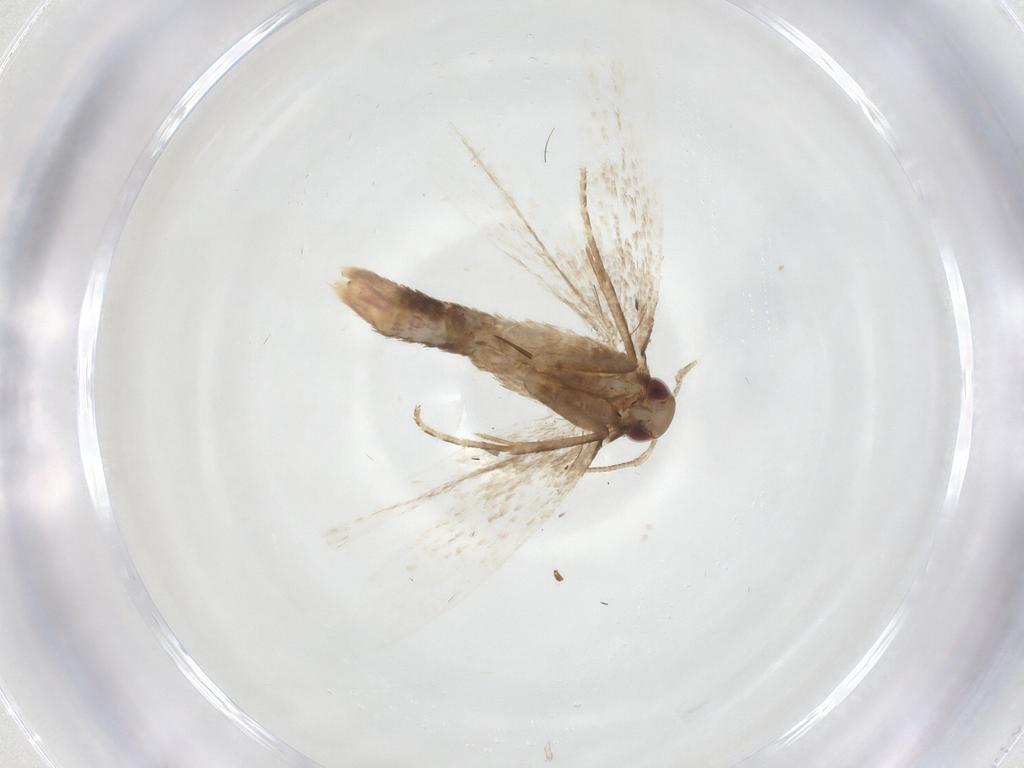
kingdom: Animalia
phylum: Arthropoda
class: Insecta
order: Lepidoptera
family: Gelechiidae
